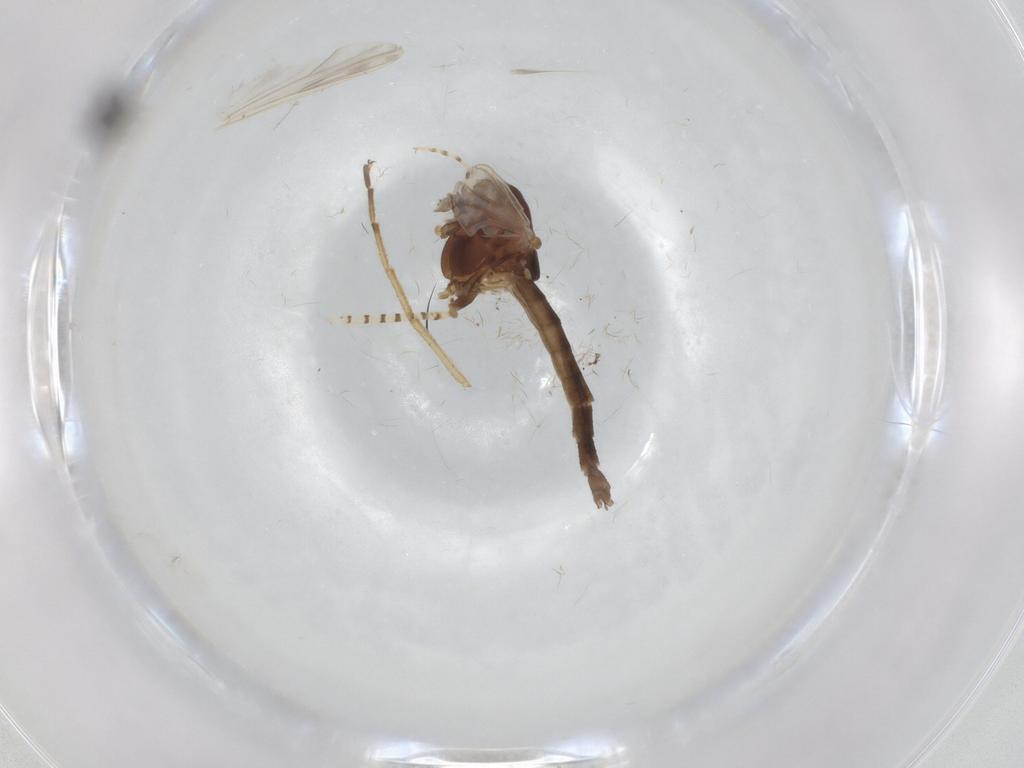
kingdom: Animalia
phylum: Arthropoda
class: Insecta
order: Diptera
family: Chironomidae
